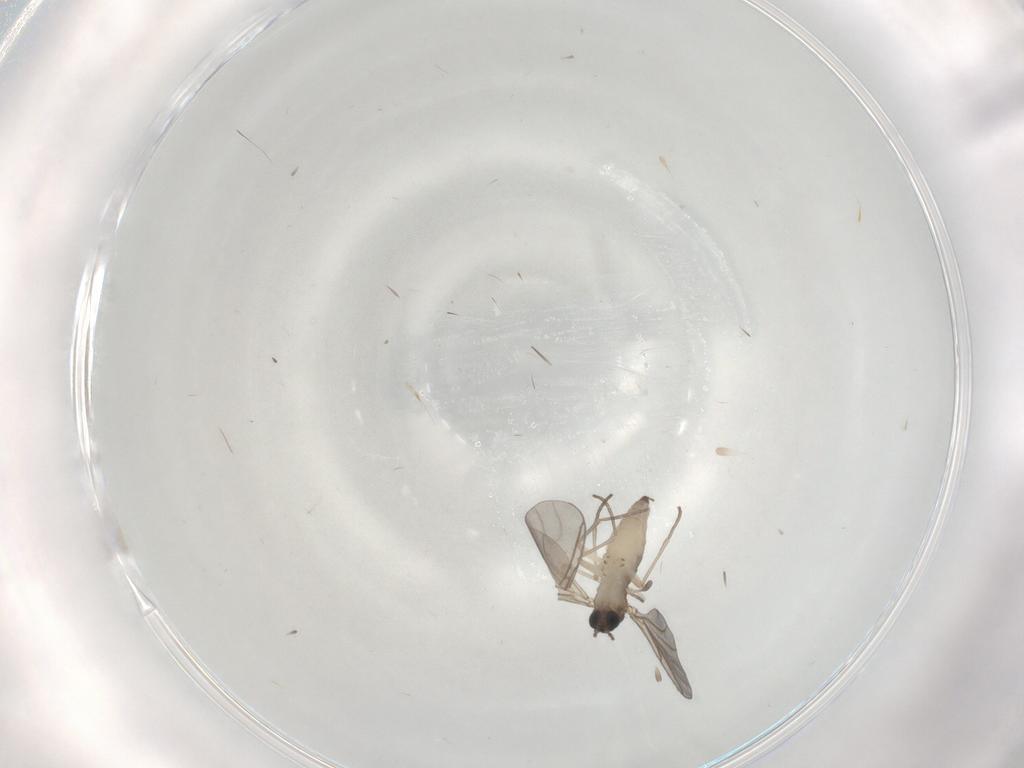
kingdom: Animalia
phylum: Arthropoda
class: Insecta
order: Diptera
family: Sciaridae
